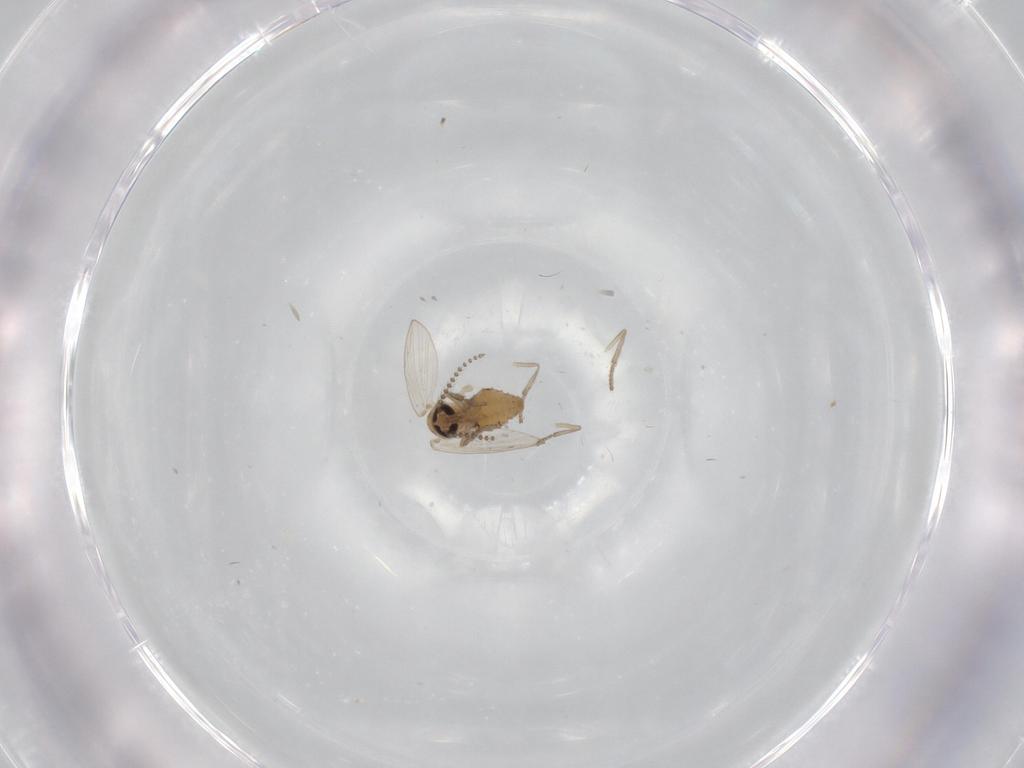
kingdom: Animalia
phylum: Arthropoda
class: Insecta
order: Diptera
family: Psychodidae
